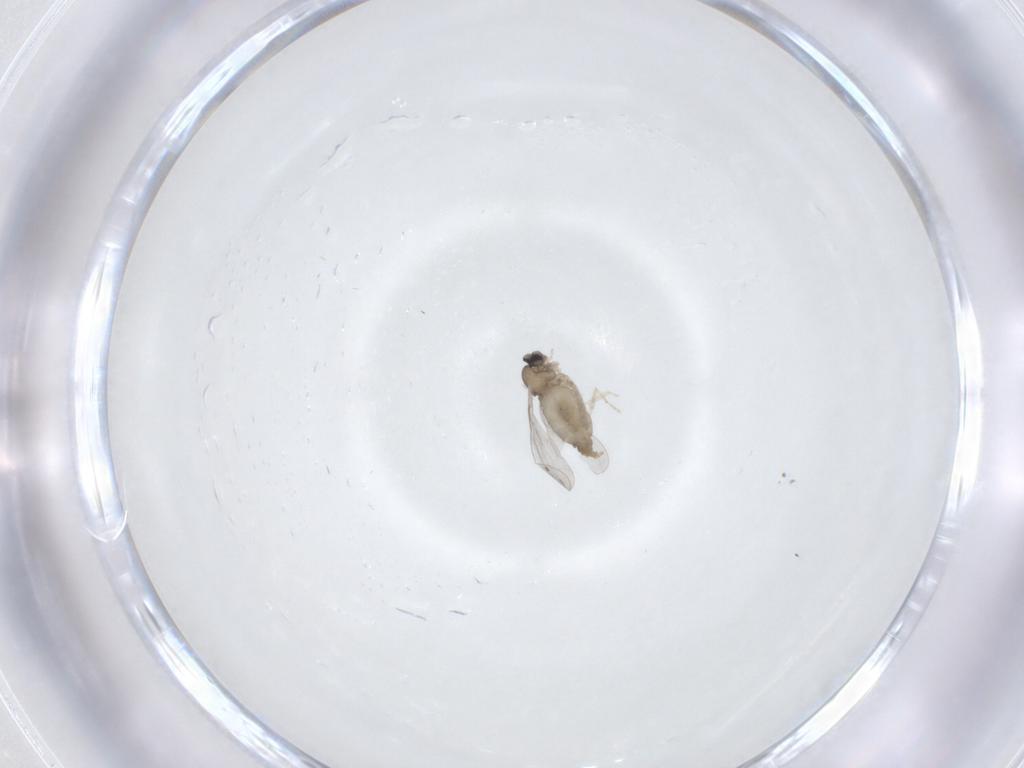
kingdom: Animalia
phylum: Arthropoda
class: Insecta
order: Diptera
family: Cecidomyiidae
